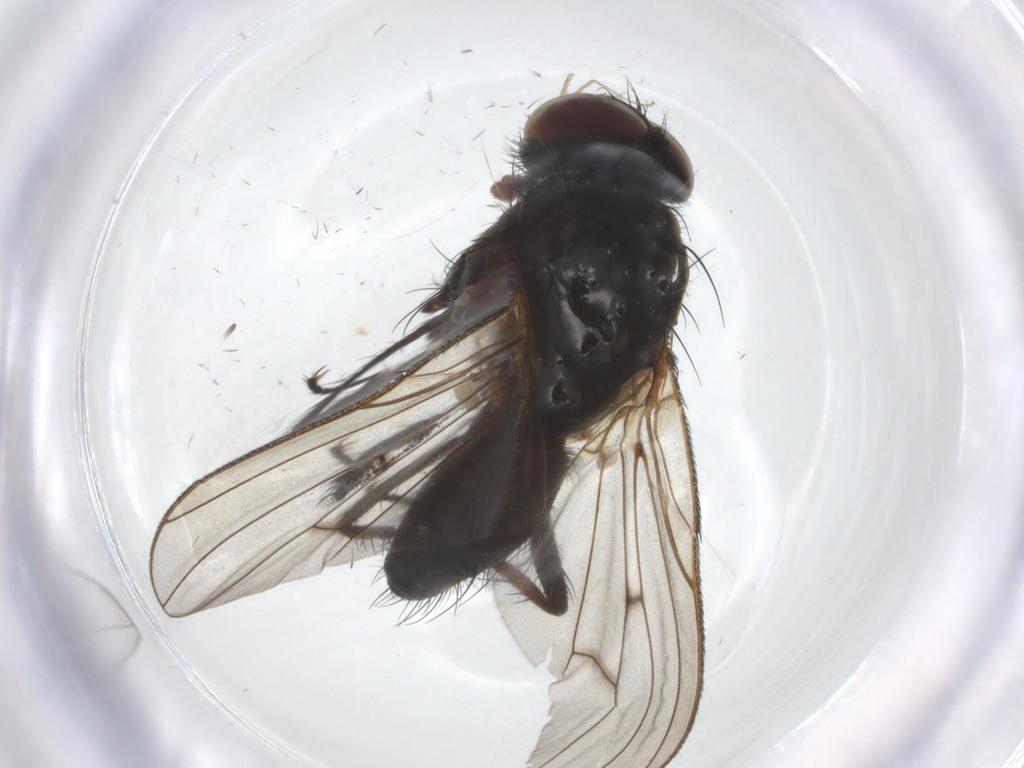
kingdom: Animalia
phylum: Arthropoda
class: Insecta
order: Diptera
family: Anthomyiidae
